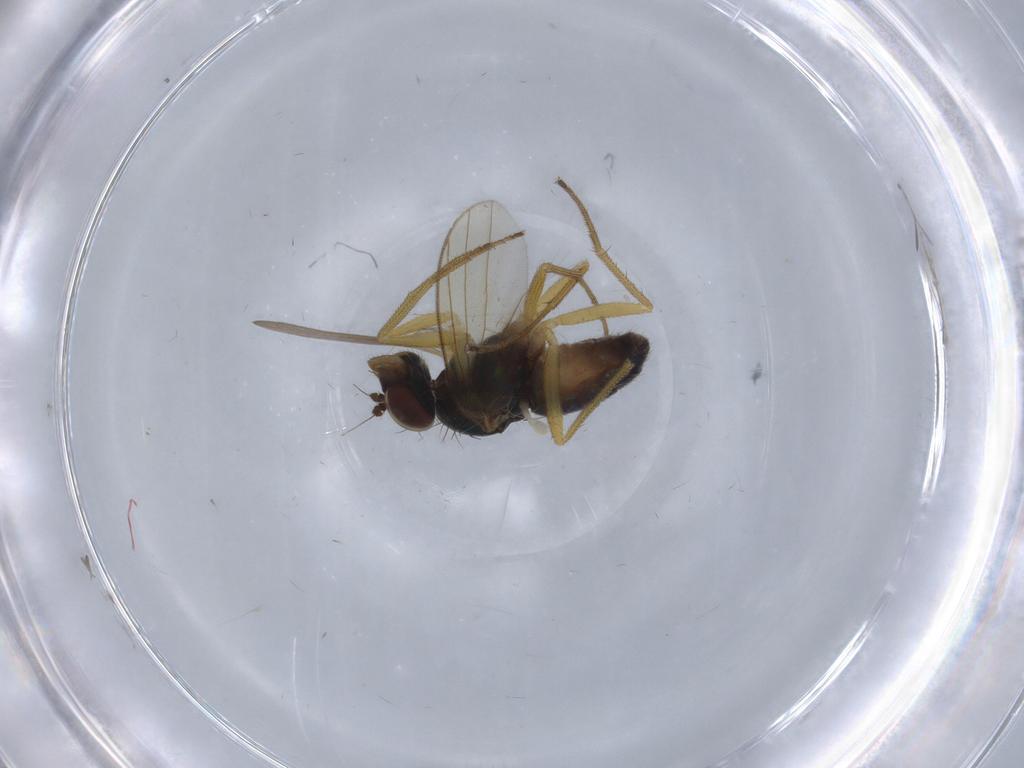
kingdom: Animalia
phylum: Arthropoda
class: Insecta
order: Diptera
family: Dolichopodidae
